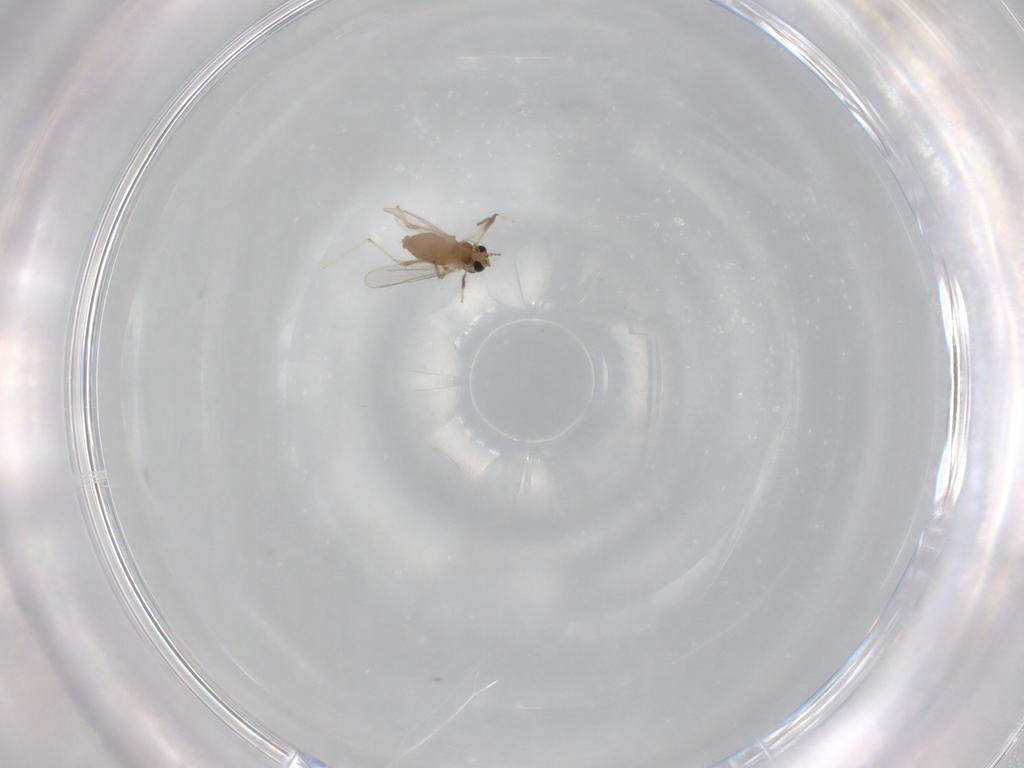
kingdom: Animalia
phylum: Arthropoda
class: Insecta
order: Diptera
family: Chironomidae
